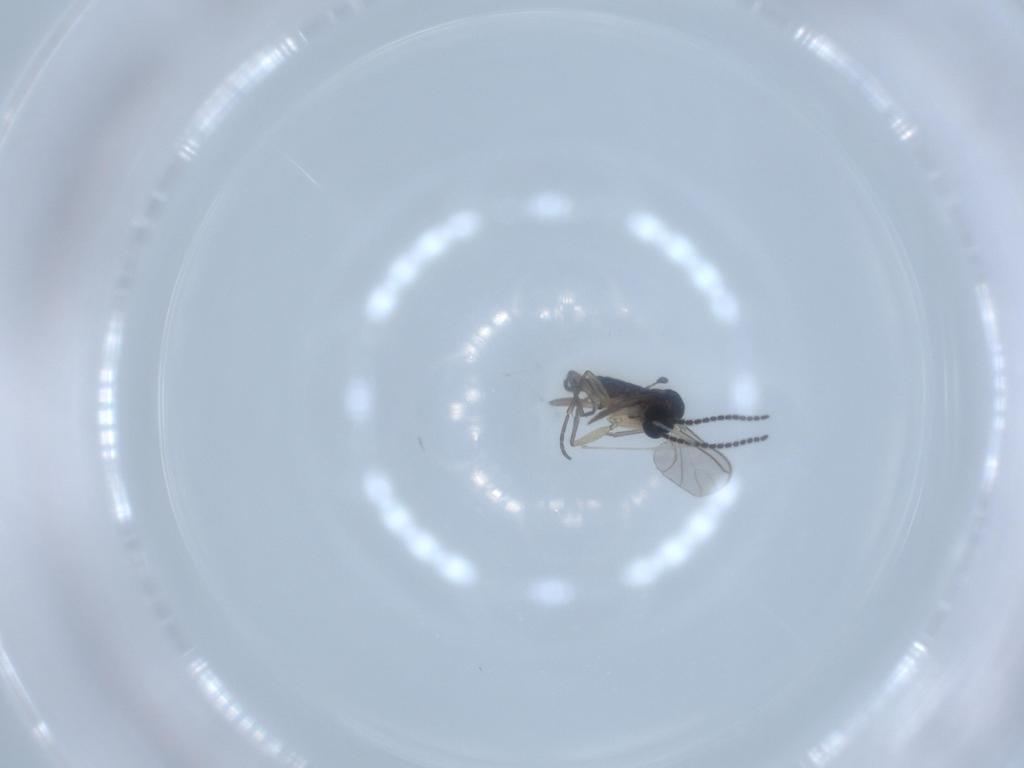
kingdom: Animalia
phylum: Arthropoda
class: Insecta
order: Diptera
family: Sciaridae
